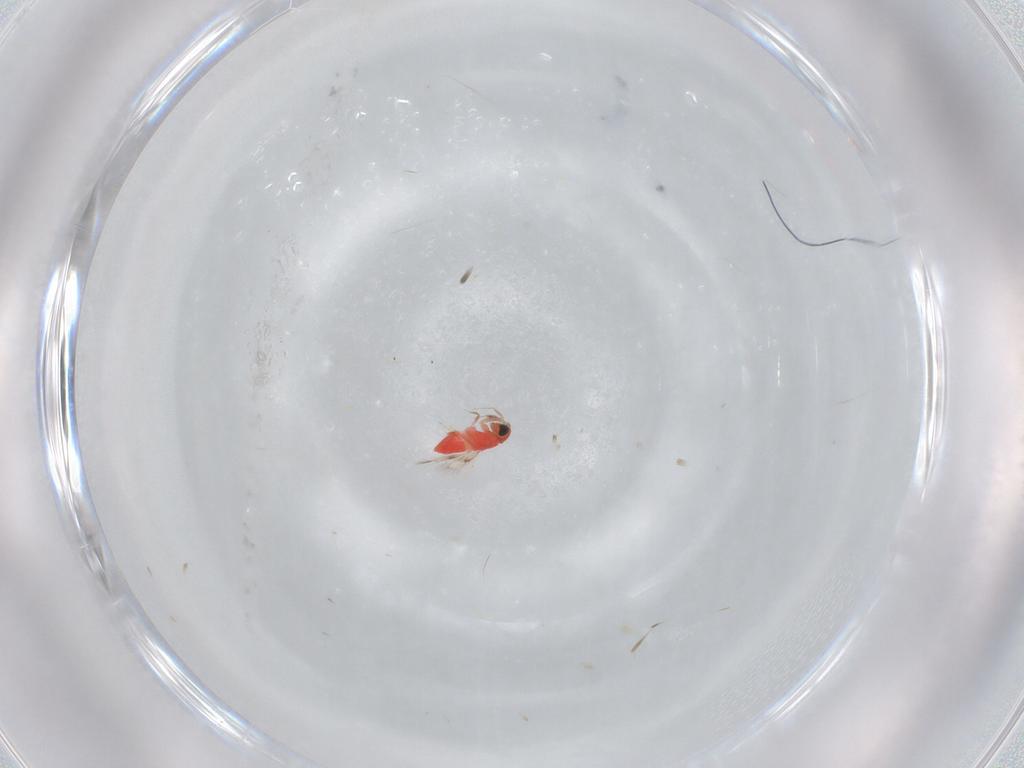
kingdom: Animalia
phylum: Arthropoda
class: Insecta
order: Hymenoptera
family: Trichogrammatidae
